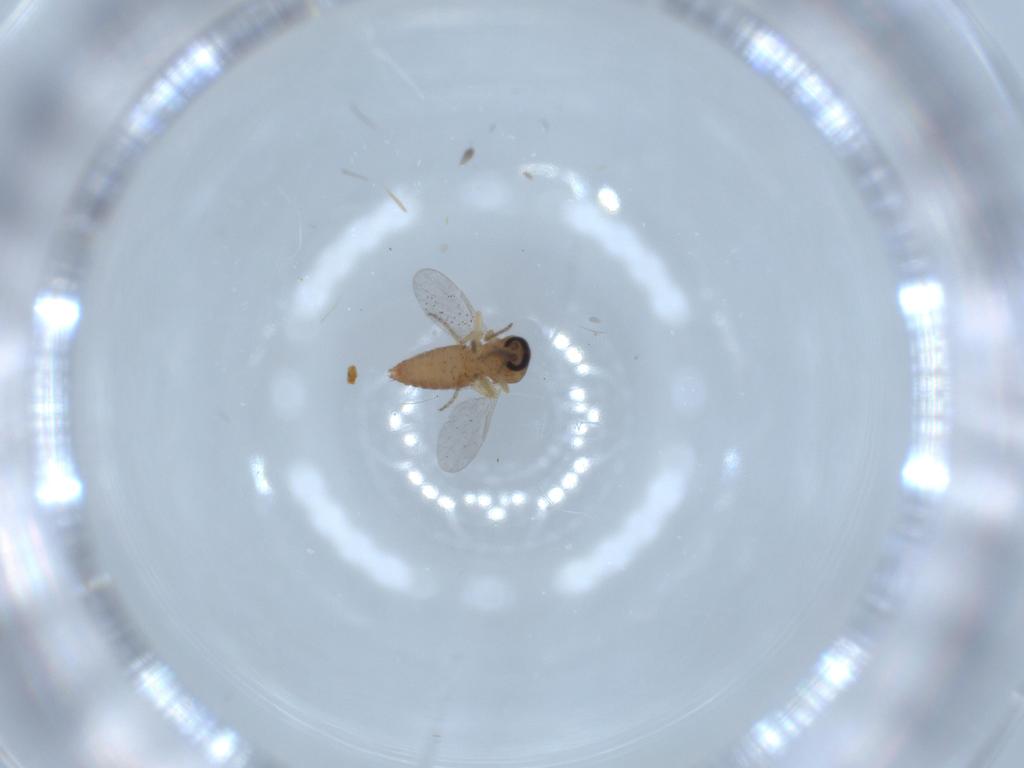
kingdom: Animalia
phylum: Arthropoda
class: Insecta
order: Diptera
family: Ceratopogonidae
